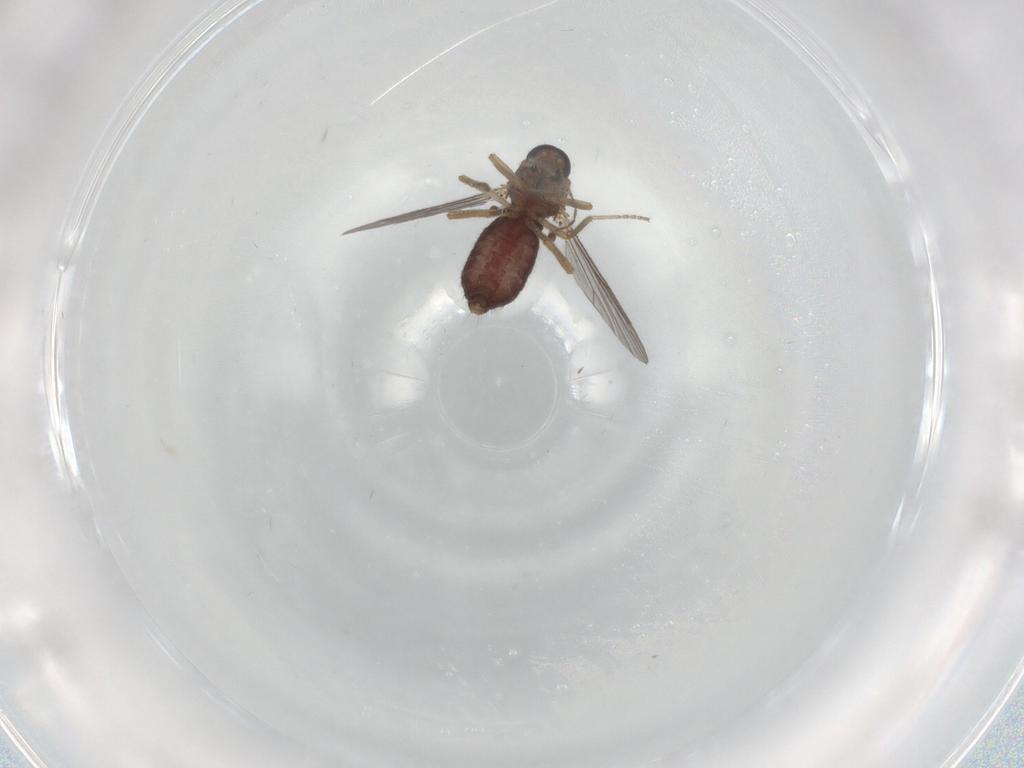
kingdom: Animalia
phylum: Arthropoda
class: Insecta
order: Diptera
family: Ceratopogonidae
